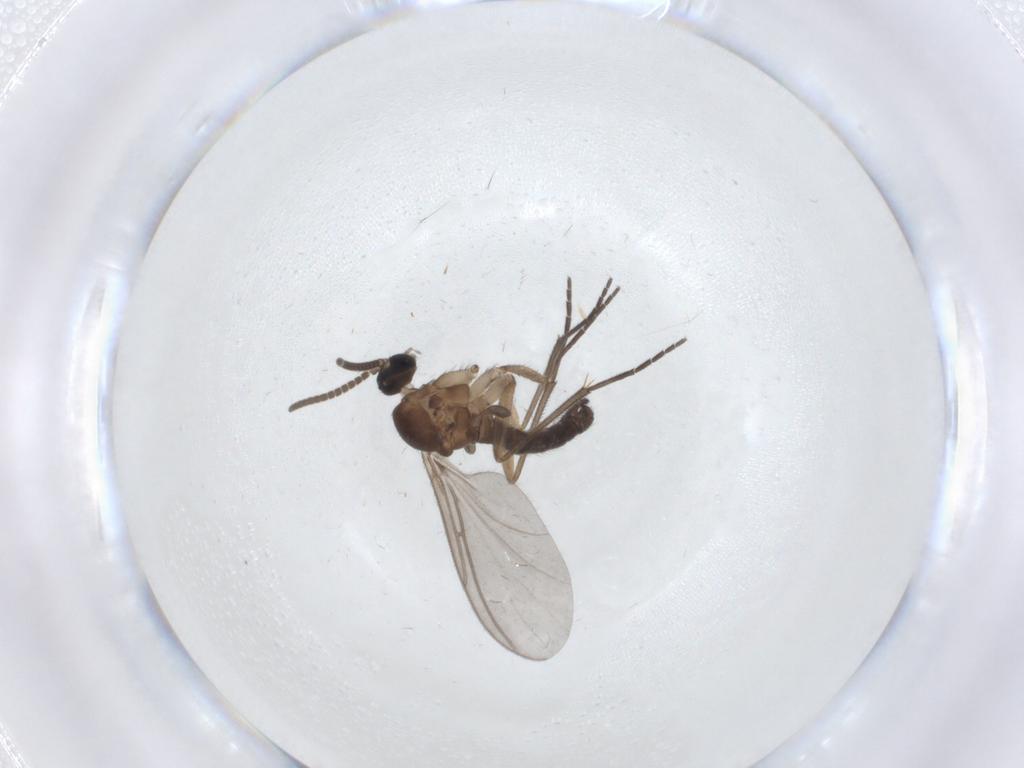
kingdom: Animalia
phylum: Arthropoda
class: Insecta
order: Diptera
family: Sciaridae
